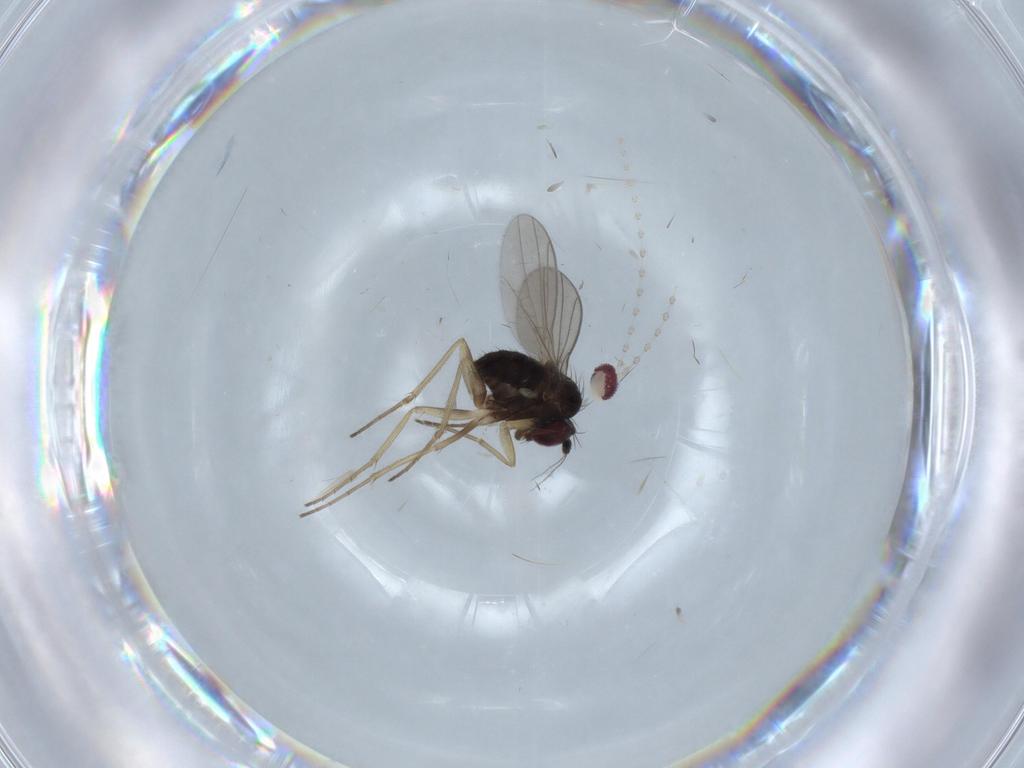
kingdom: Animalia
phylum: Arthropoda
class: Insecta
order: Diptera
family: Dolichopodidae
